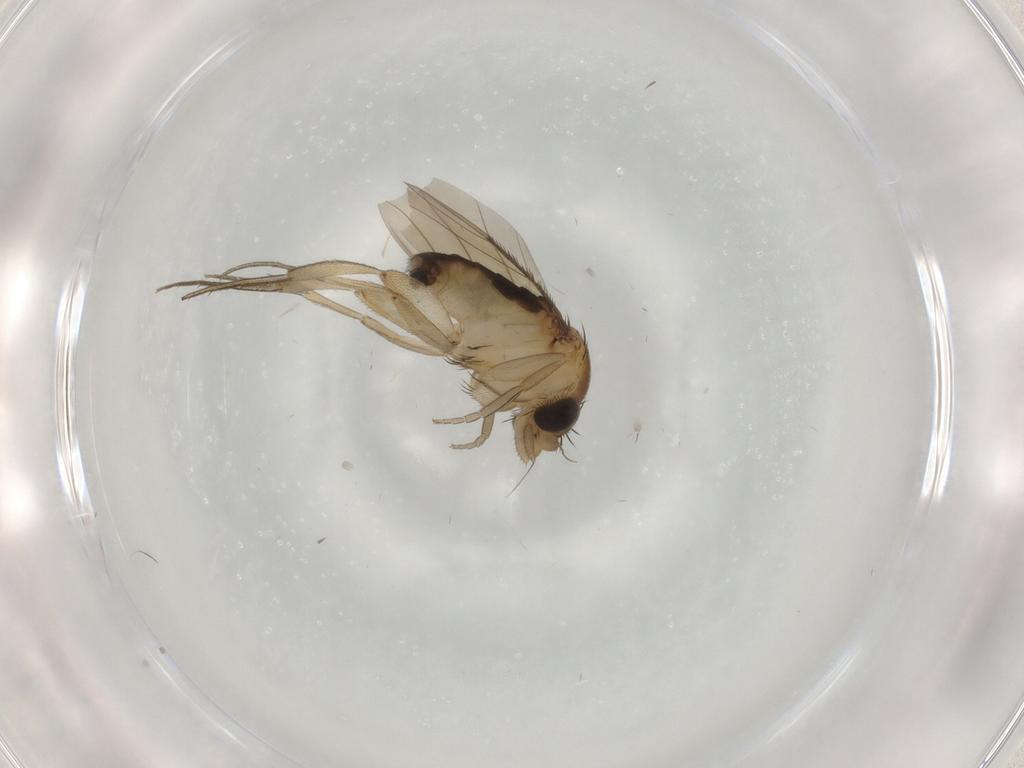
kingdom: Animalia
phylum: Arthropoda
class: Insecta
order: Diptera
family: Phoridae
